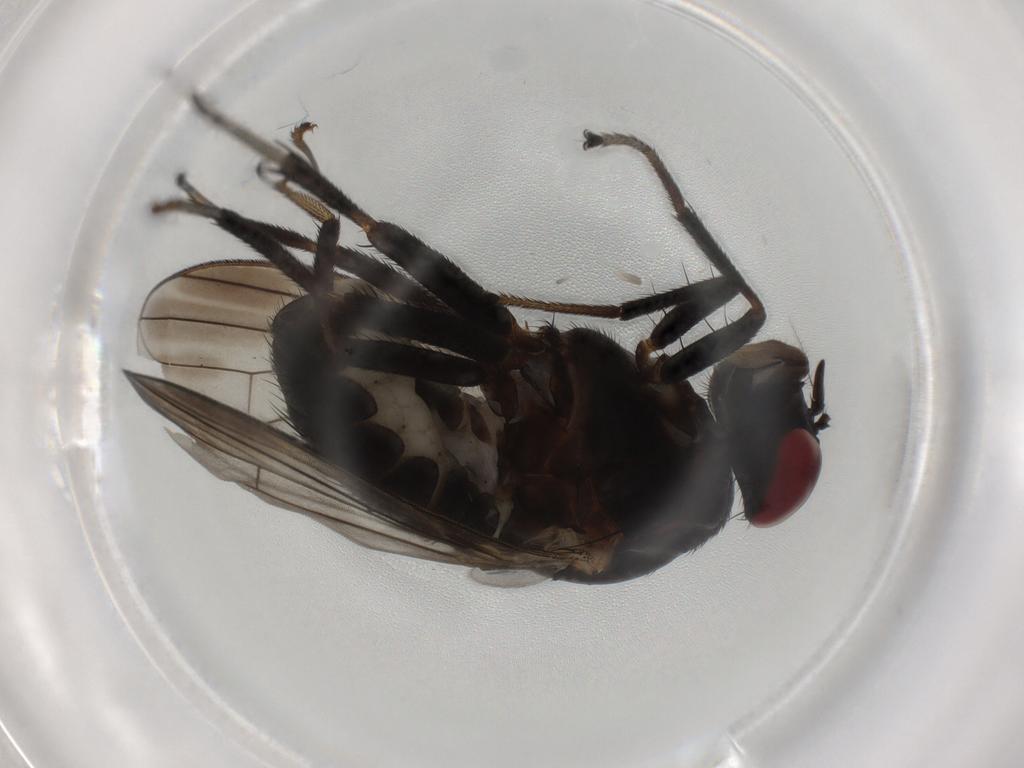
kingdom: Animalia
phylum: Arthropoda
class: Insecta
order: Diptera
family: Lauxaniidae
